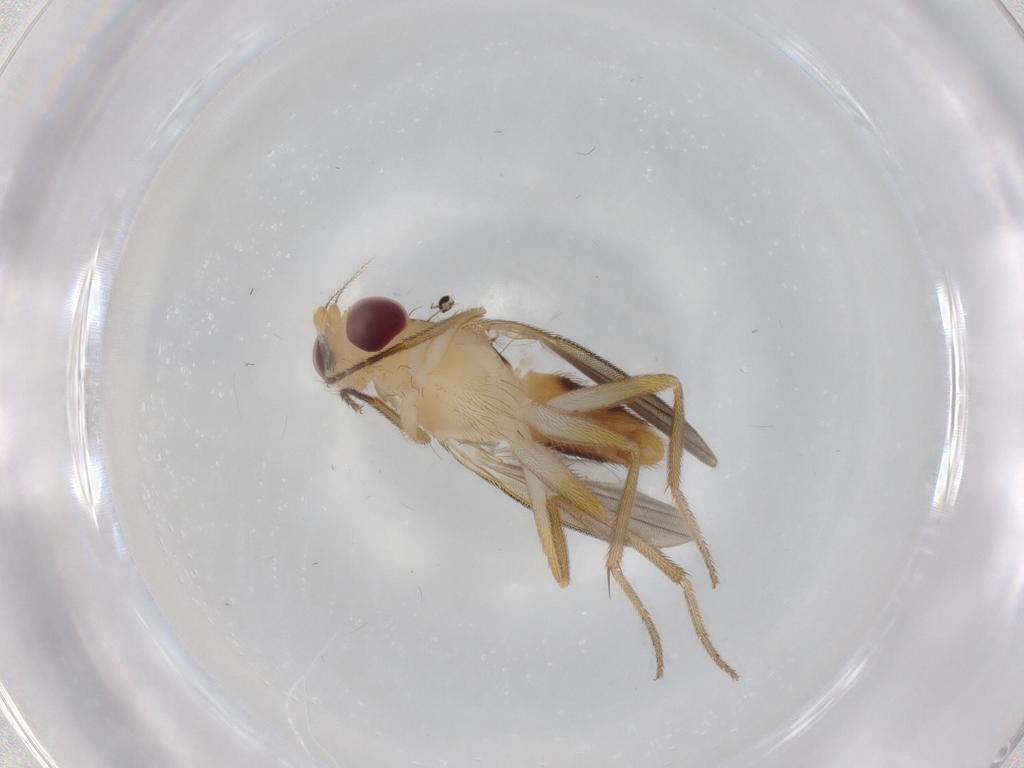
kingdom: Animalia
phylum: Arthropoda
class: Insecta
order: Diptera
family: Agromyzidae
